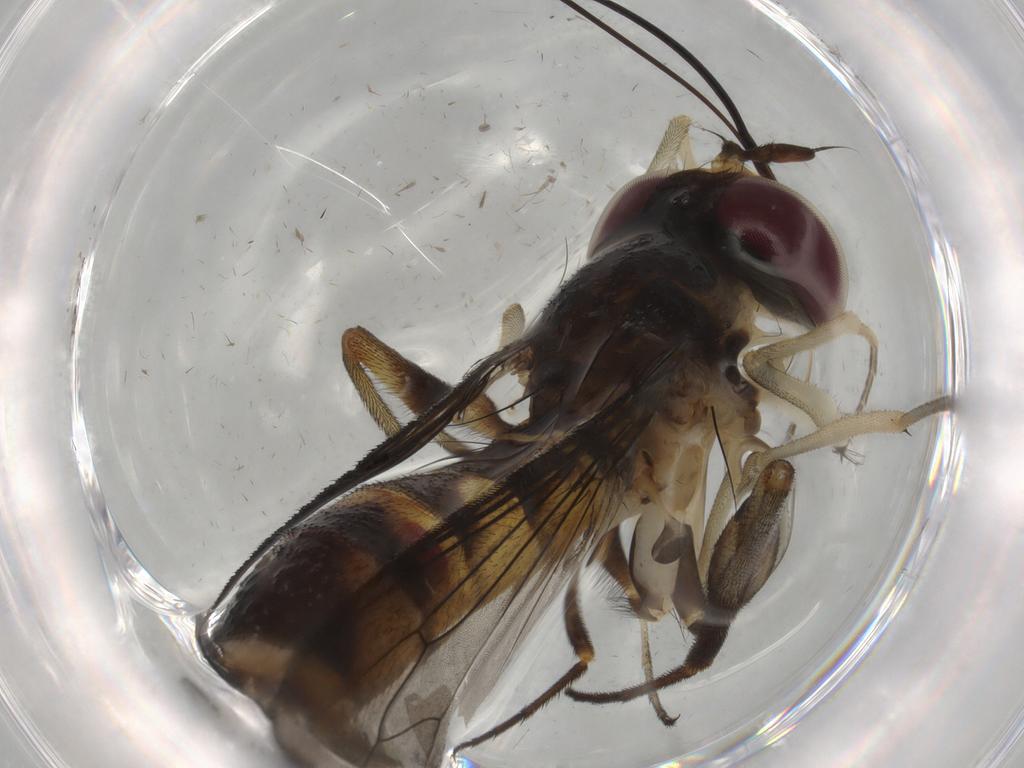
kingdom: Animalia
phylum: Arthropoda
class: Insecta
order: Diptera
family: Sciaridae
